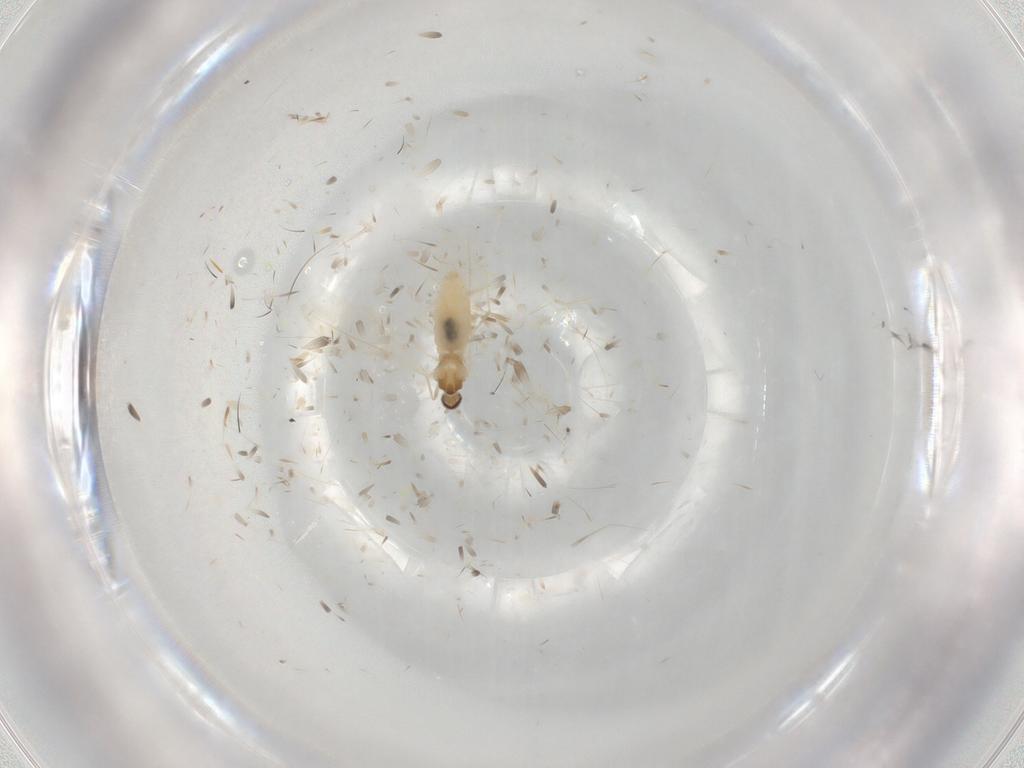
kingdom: Animalia
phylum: Arthropoda
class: Insecta
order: Diptera
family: Cecidomyiidae
